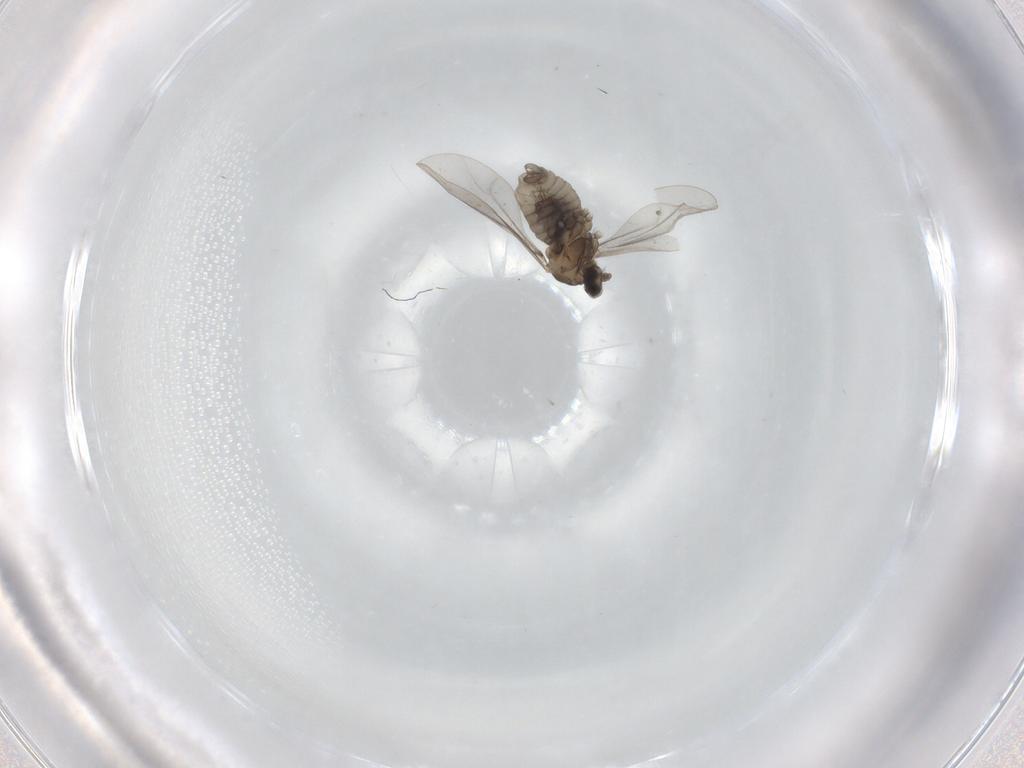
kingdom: Animalia
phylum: Arthropoda
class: Insecta
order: Diptera
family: Cecidomyiidae
